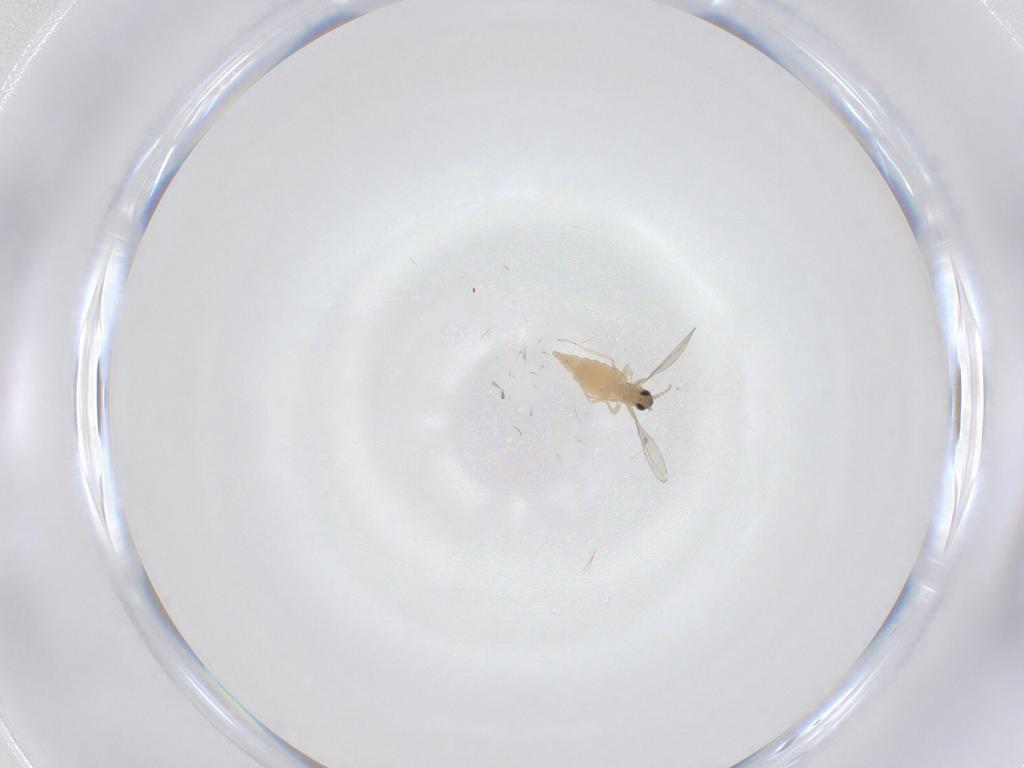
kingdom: Animalia
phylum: Arthropoda
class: Insecta
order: Diptera
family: Cecidomyiidae
